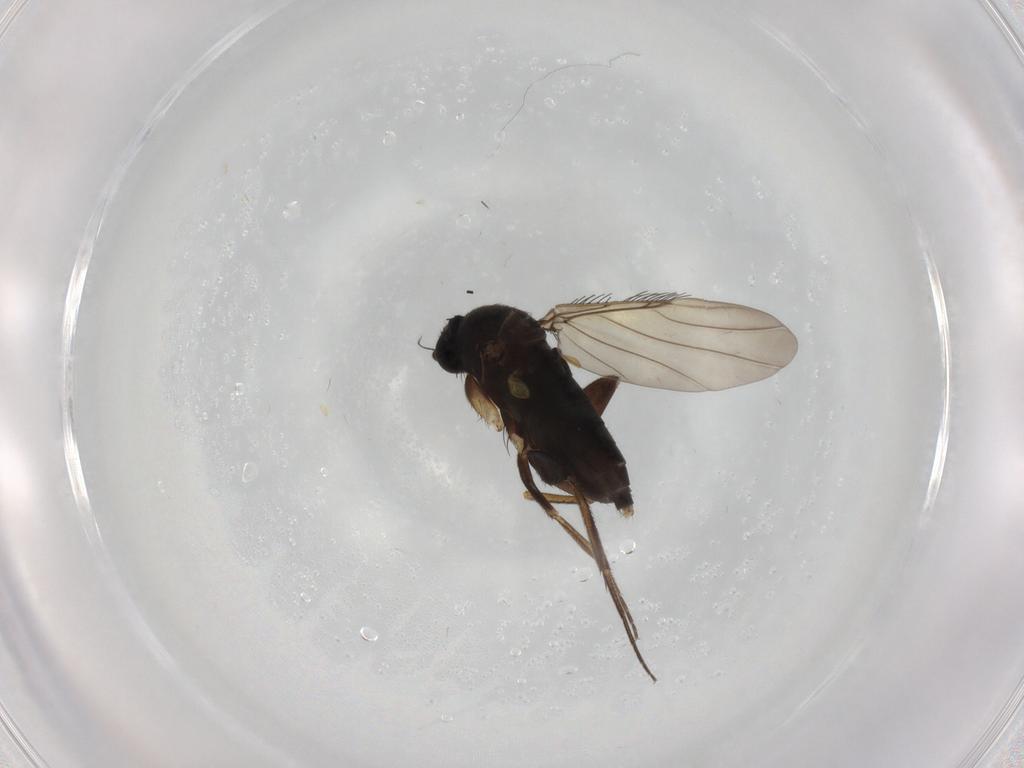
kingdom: Animalia
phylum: Arthropoda
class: Insecta
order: Diptera
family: Phoridae
